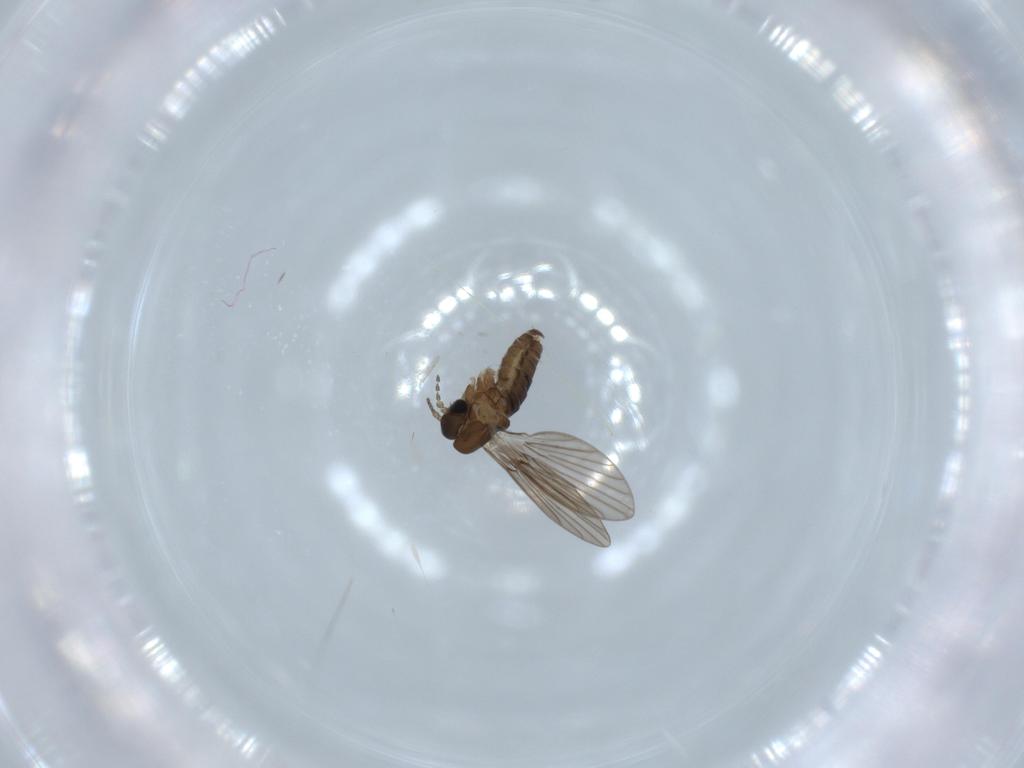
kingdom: Animalia
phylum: Arthropoda
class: Insecta
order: Diptera
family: Psychodidae
